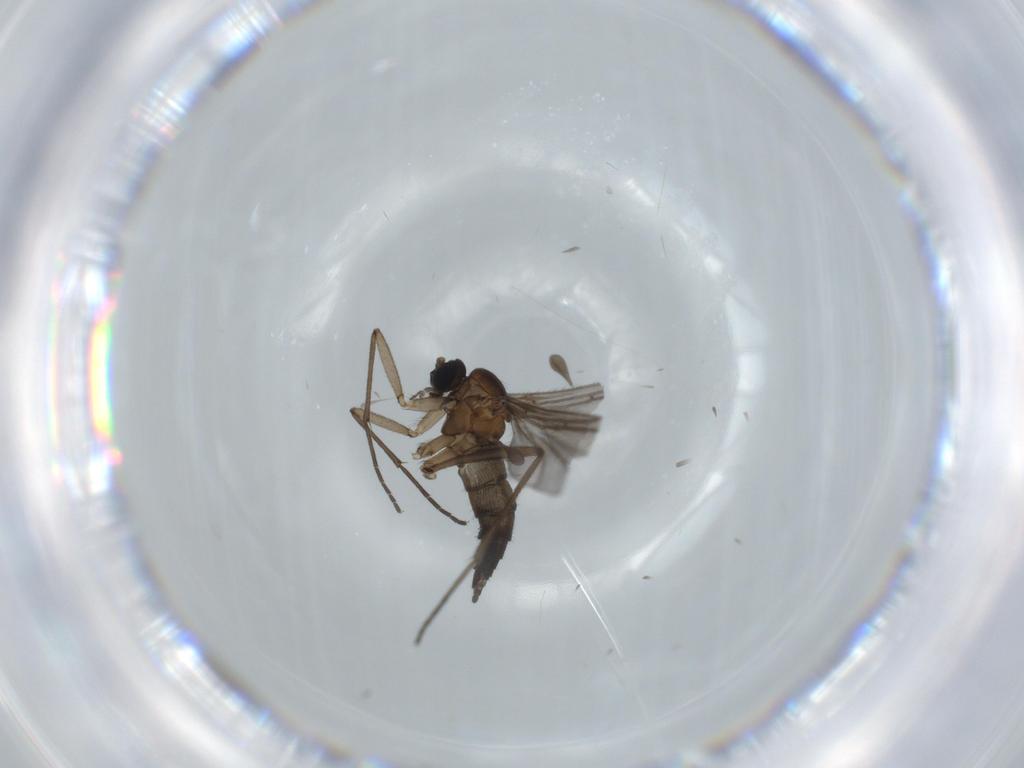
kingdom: Animalia
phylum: Arthropoda
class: Insecta
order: Diptera
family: Sciaridae
